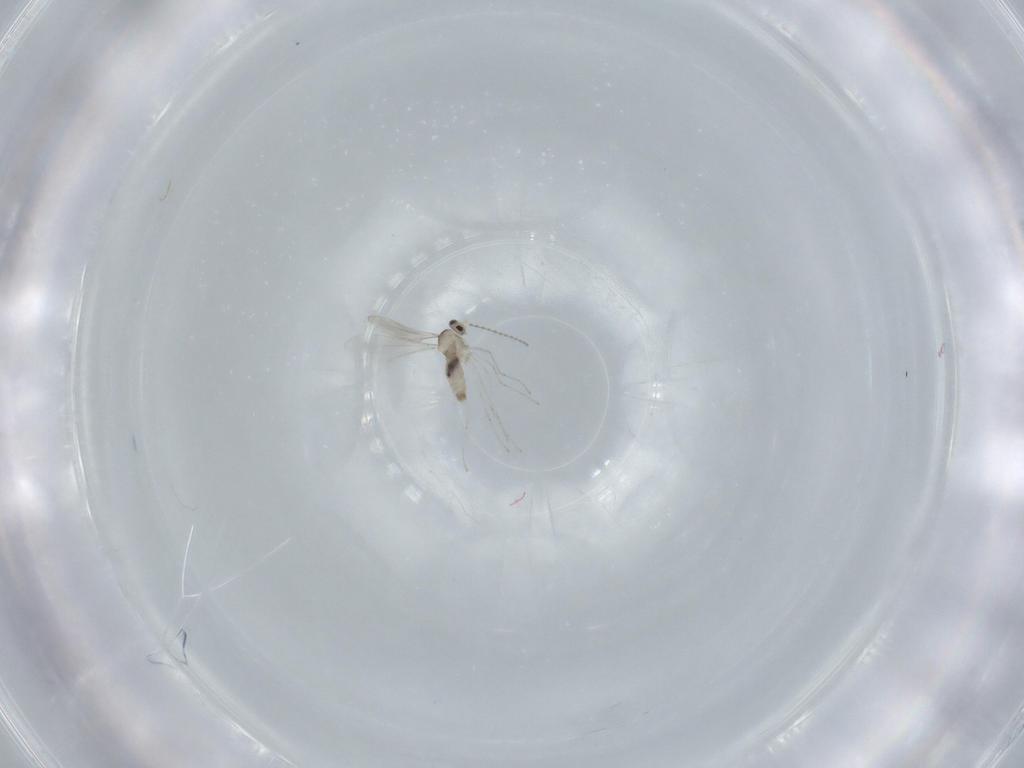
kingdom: Animalia
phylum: Arthropoda
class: Insecta
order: Diptera
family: Cecidomyiidae
